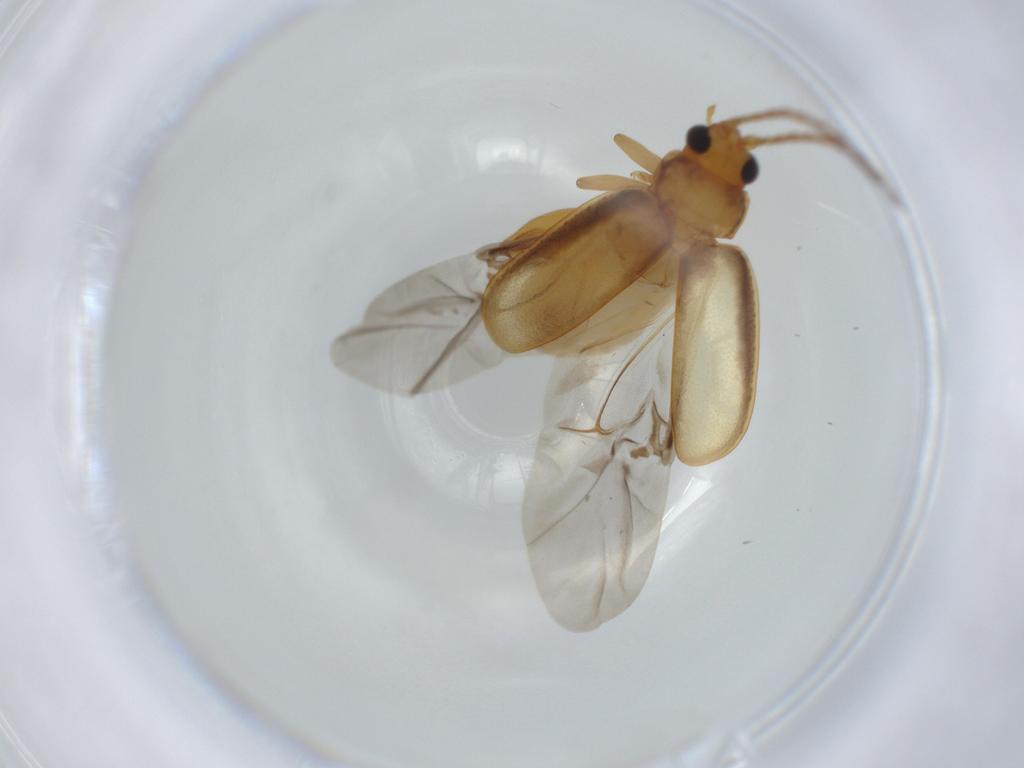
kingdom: Animalia
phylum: Arthropoda
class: Insecta
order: Coleoptera
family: Chrysomelidae
